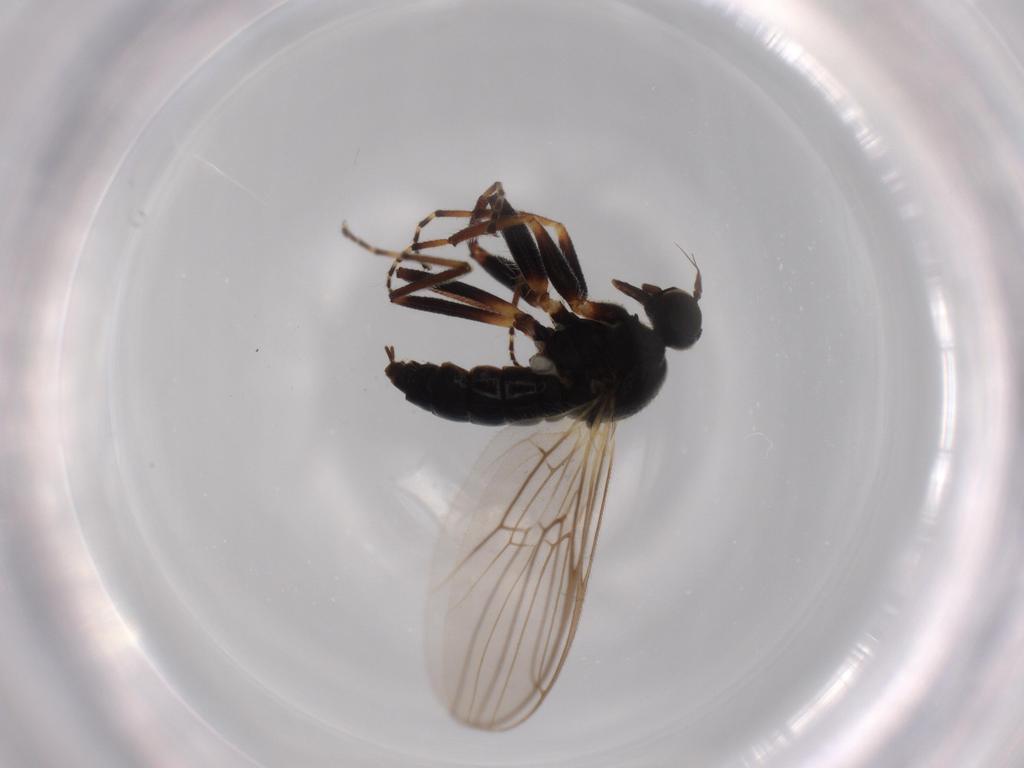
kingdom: Animalia
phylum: Arthropoda
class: Insecta
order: Diptera
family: Hybotidae
